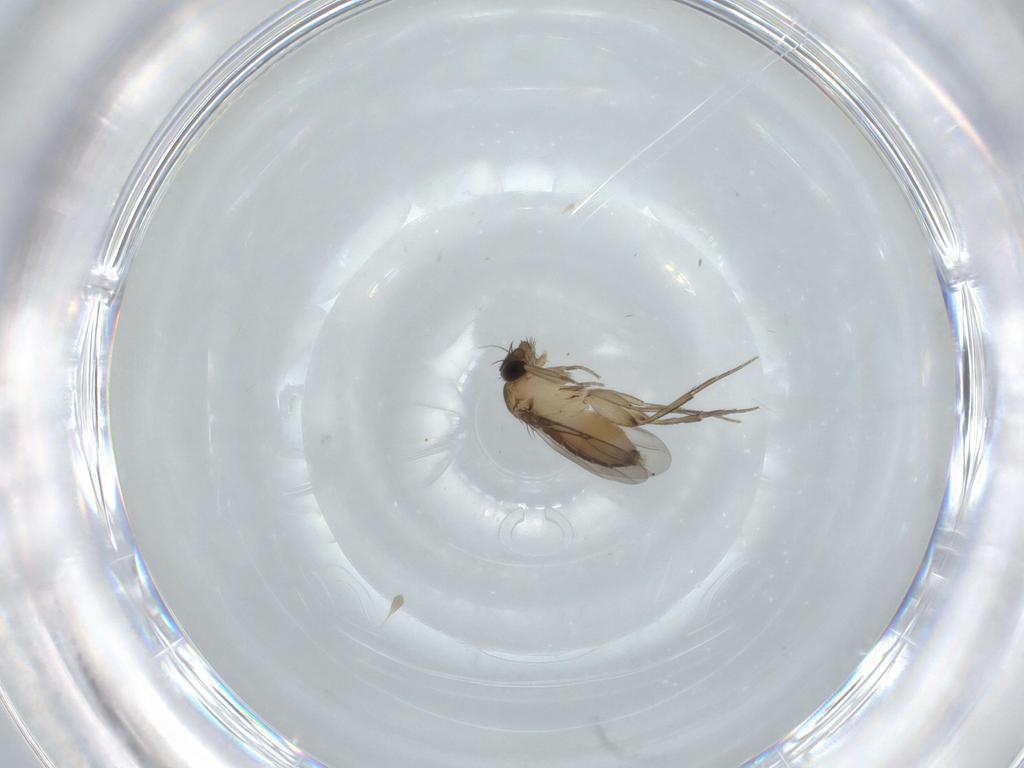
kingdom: Animalia
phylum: Arthropoda
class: Insecta
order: Diptera
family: Phoridae
